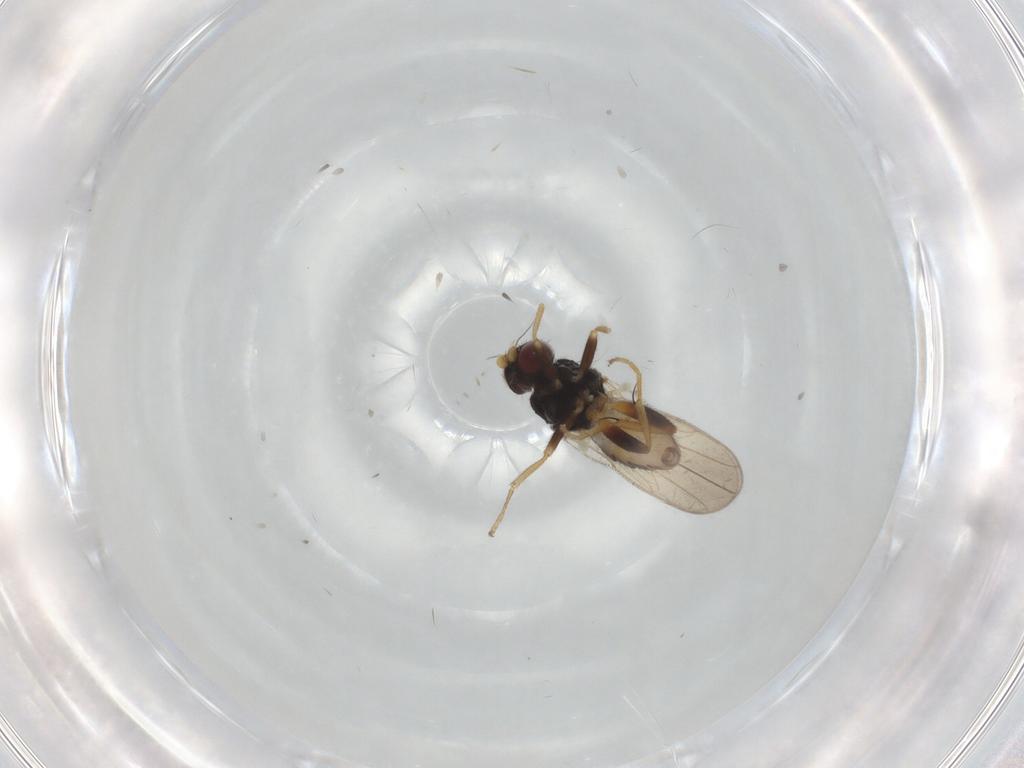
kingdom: Animalia
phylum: Arthropoda
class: Insecta
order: Diptera
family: Chloropidae
